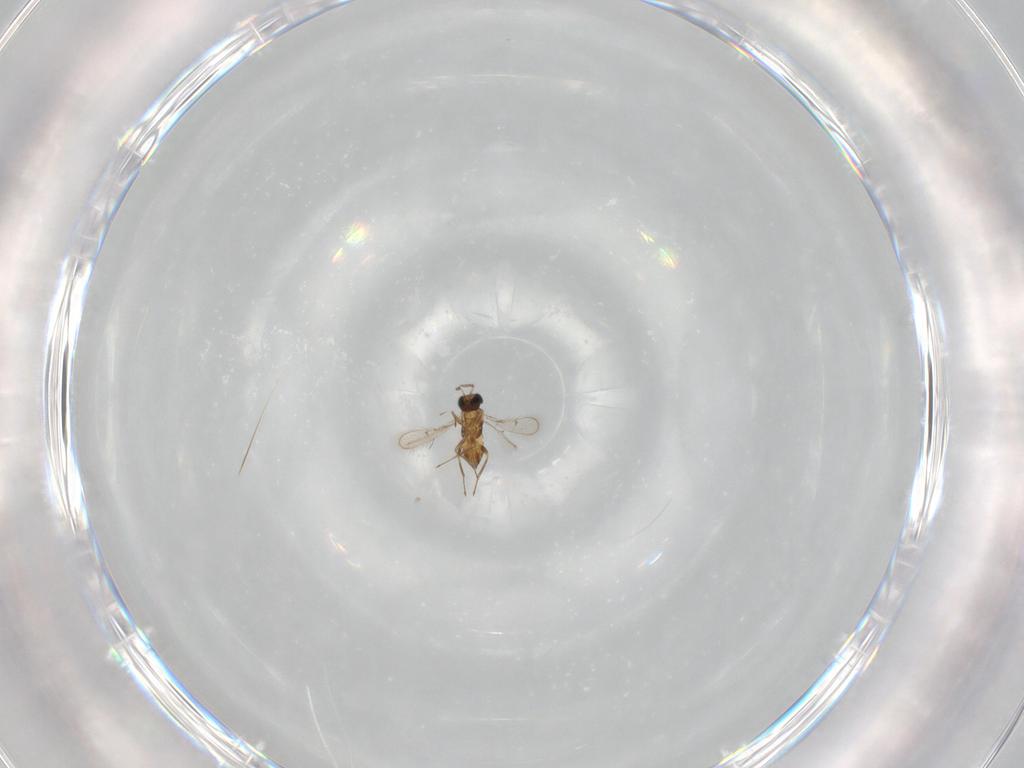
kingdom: Animalia
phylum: Arthropoda
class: Insecta
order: Hymenoptera
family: Trichogrammatidae
